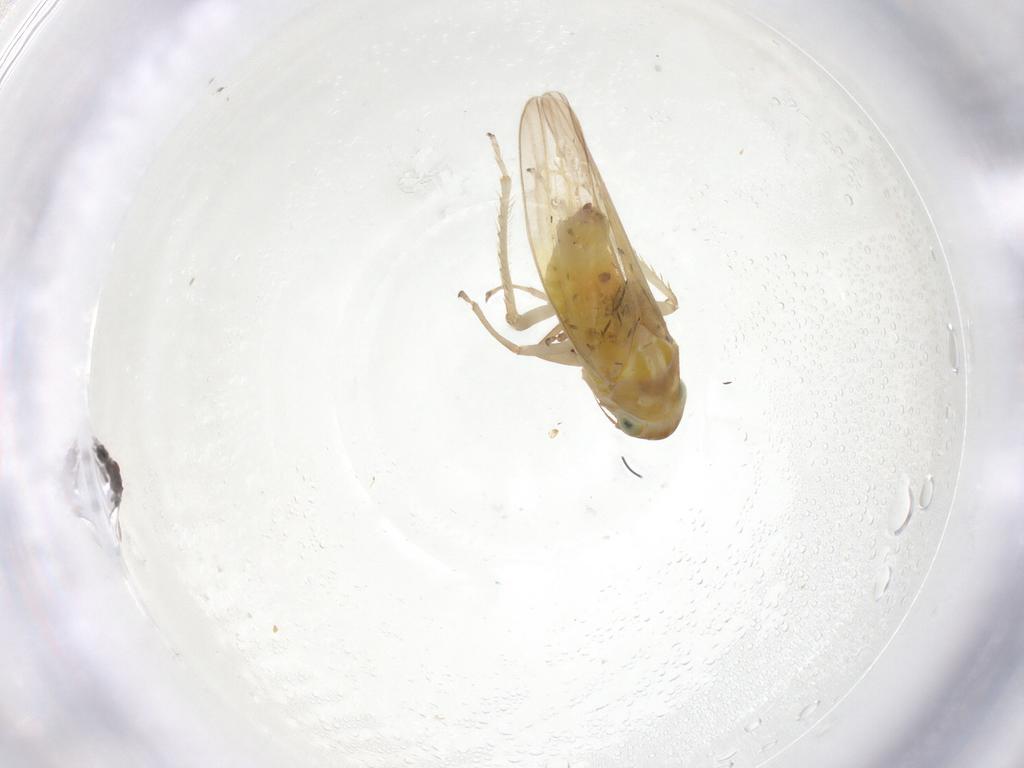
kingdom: Animalia
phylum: Arthropoda
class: Insecta
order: Hemiptera
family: Cicadellidae
